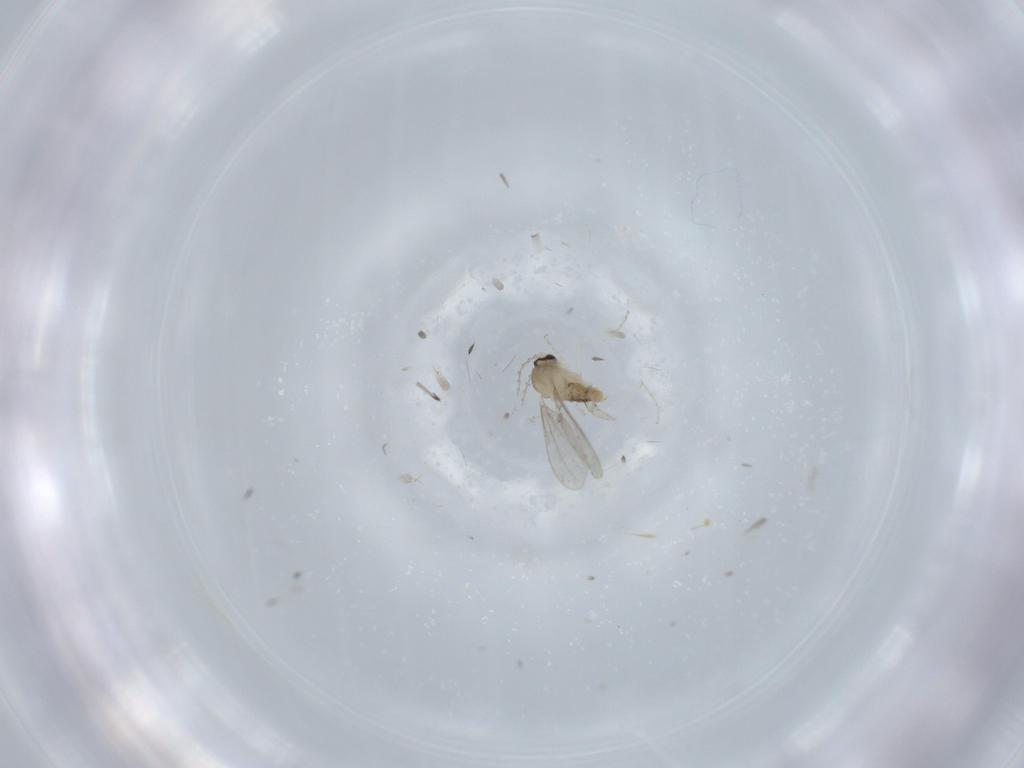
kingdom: Animalia
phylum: Arthropoda
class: Insecta
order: Diptera
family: Cecidomyiidae
